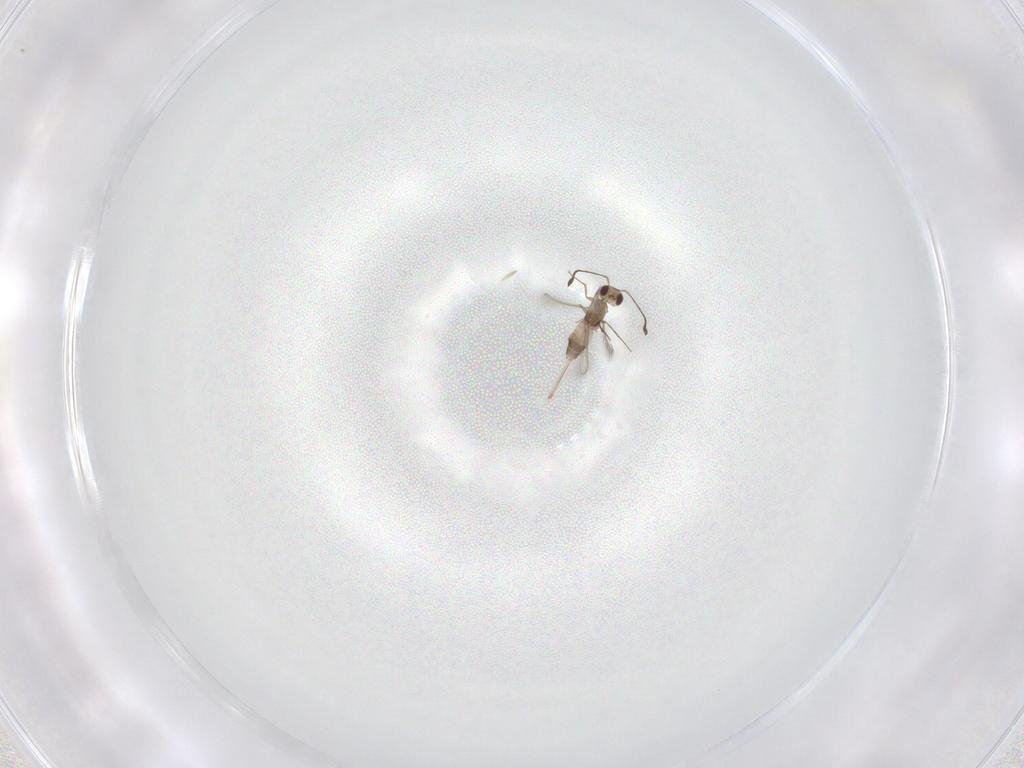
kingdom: Animalia
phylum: Arthropoda
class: Insecta
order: Hymenoptera
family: Mymaridae
